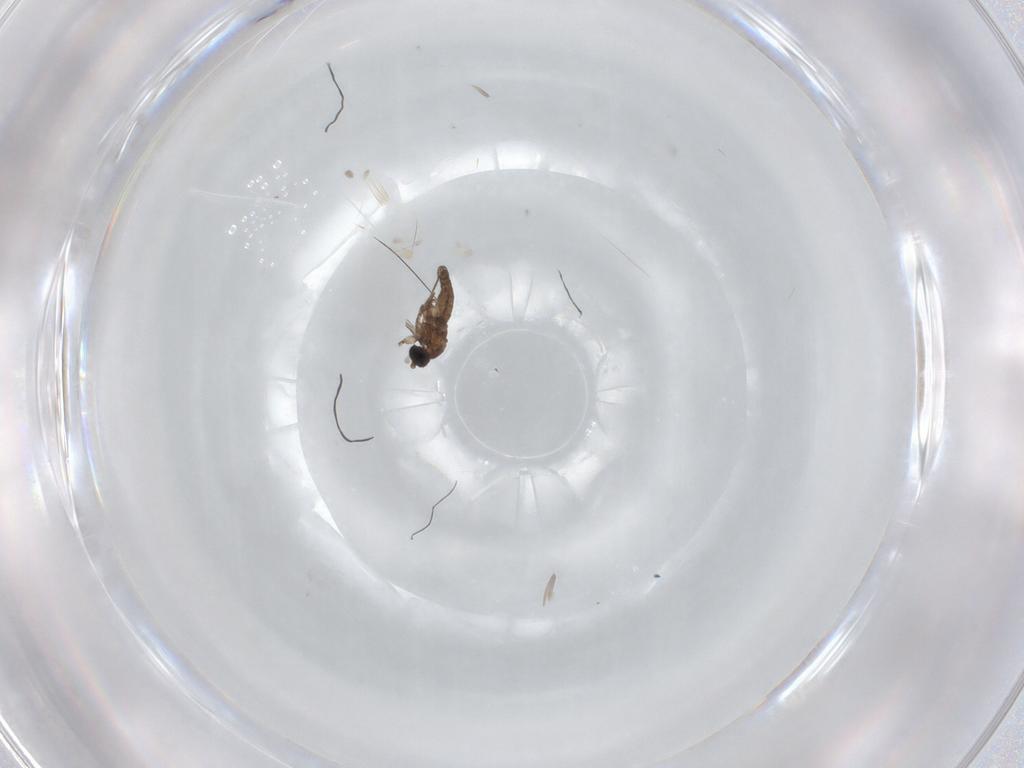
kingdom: Animalia
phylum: Arthropoda
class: Insecta
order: Diptera
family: Sciaridae
